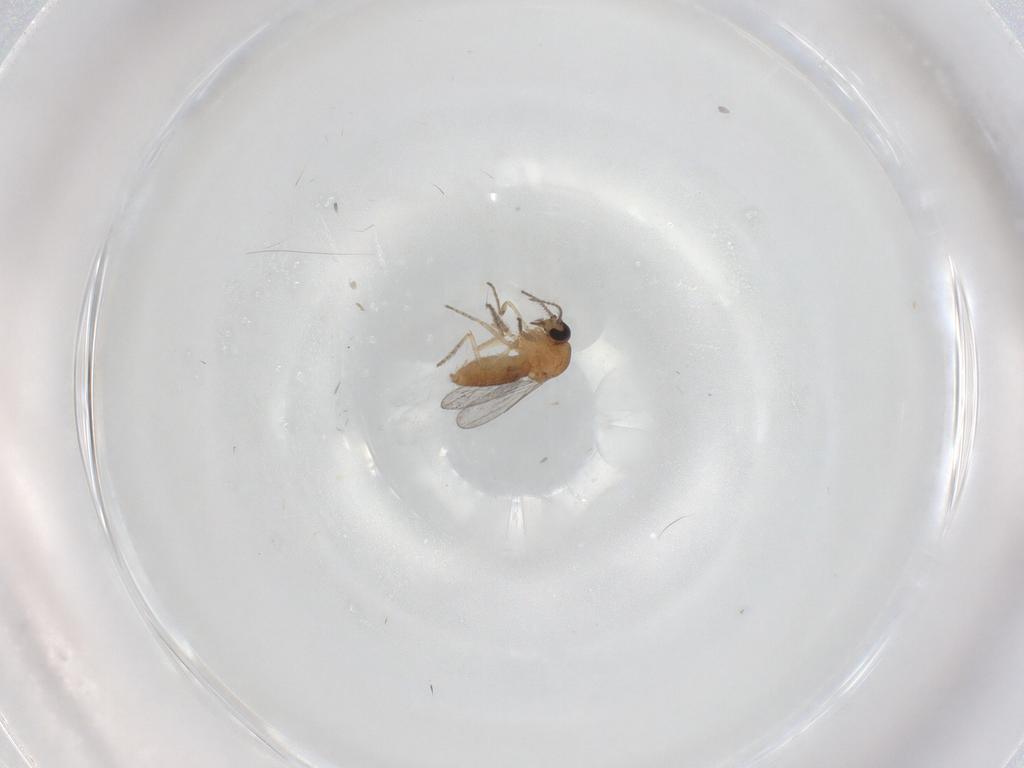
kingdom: Animalia
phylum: Arthropoda
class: Insecta
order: Diptera
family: Ceratopogonidae
